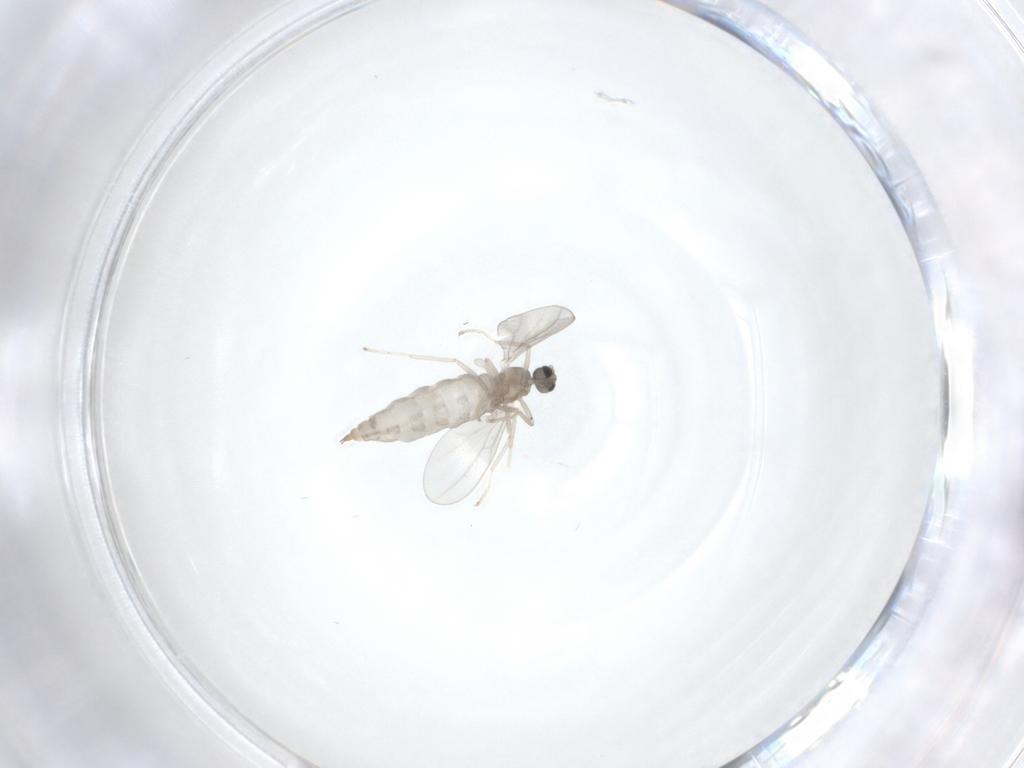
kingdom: Animalia
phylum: Arthropoda
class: Insecta
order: Diptera
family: Cecidomyiidae
